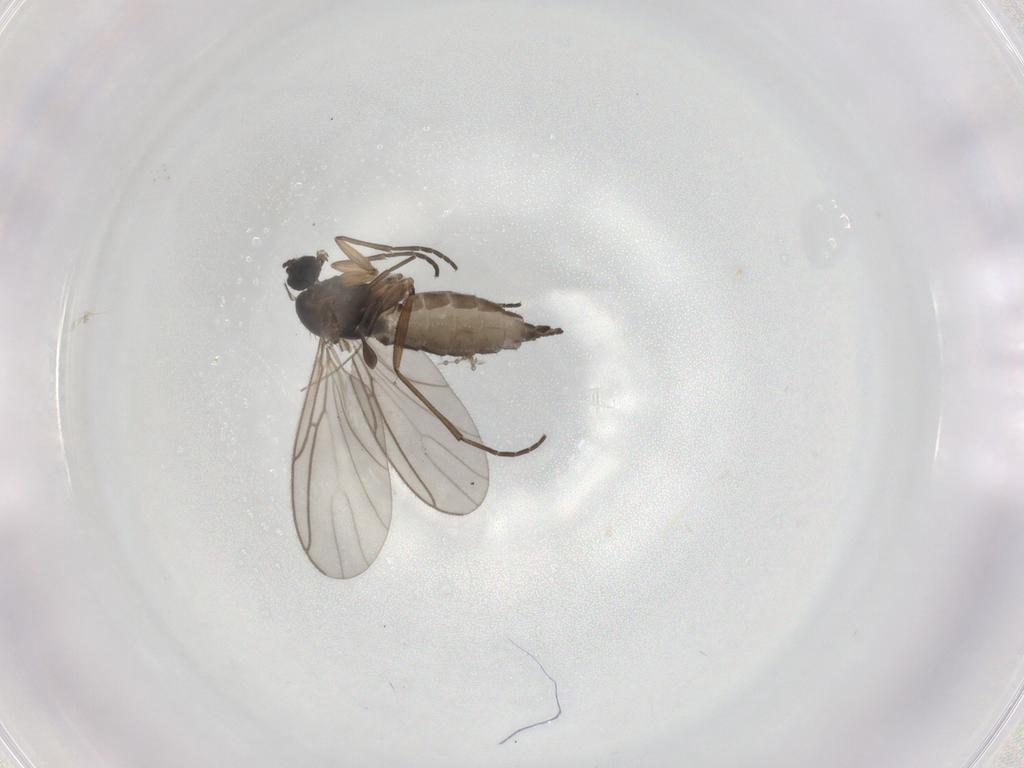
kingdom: Animalia
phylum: Arthropoda
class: Insecta
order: Diptera
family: Sciaridae
